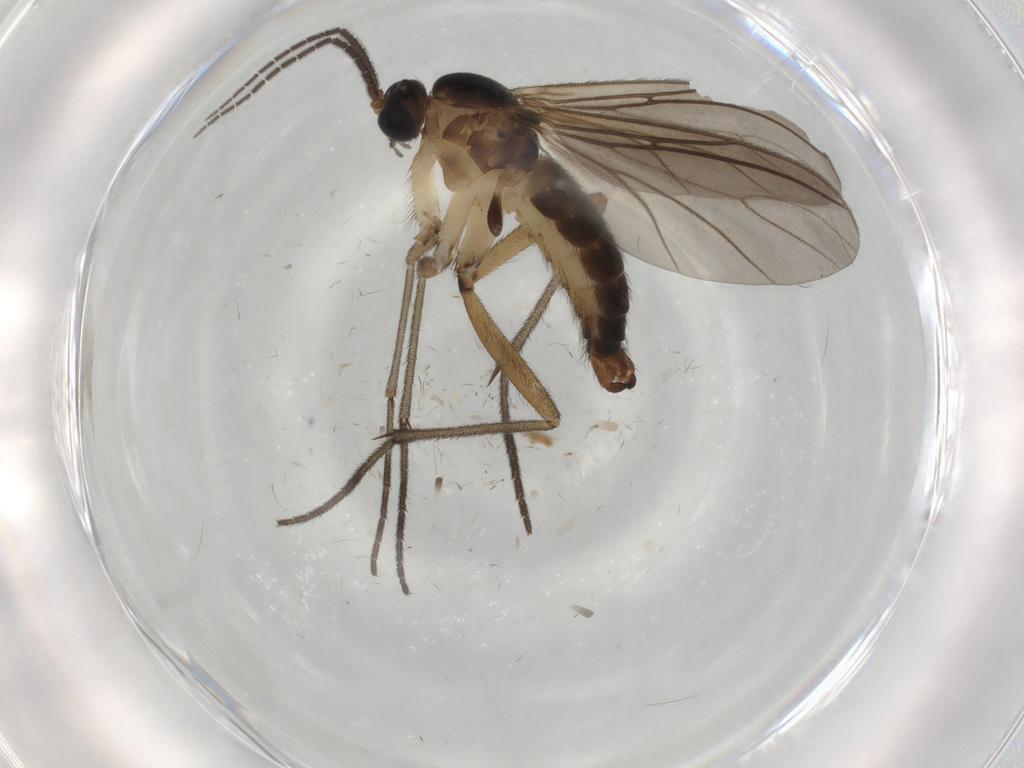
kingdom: Animalia
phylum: Arthropoda
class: Insecta
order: Diptera
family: Sciaridae
